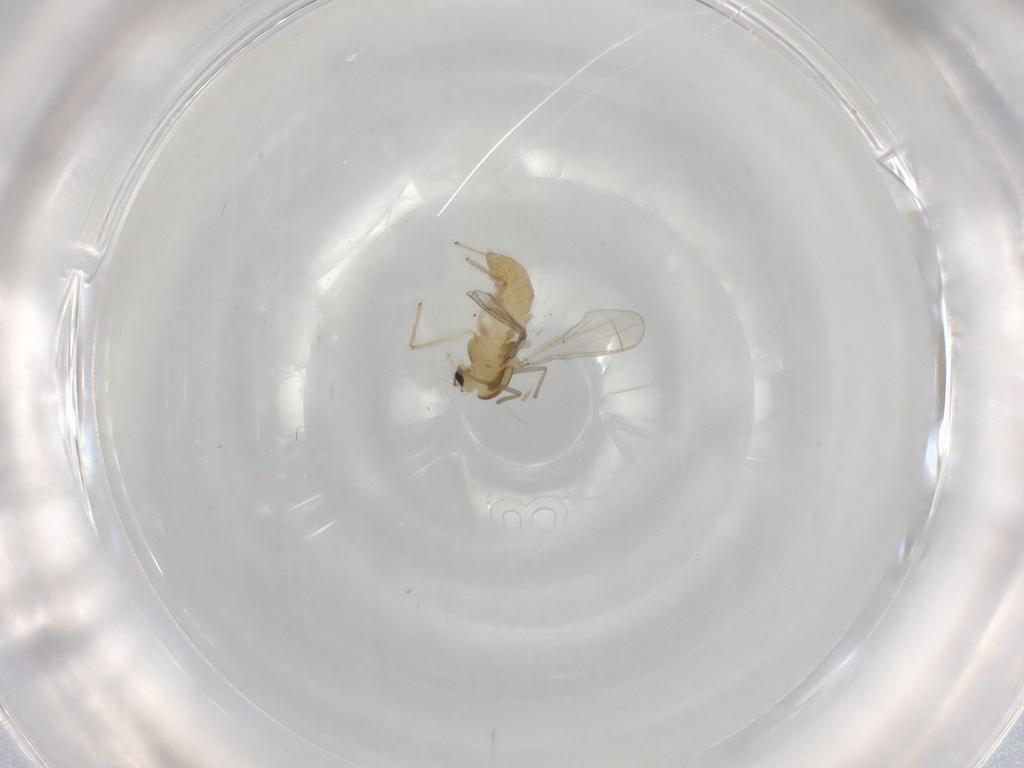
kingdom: Animalia
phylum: Arthropoda
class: Insecta
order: Diptera
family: Chironomidae
